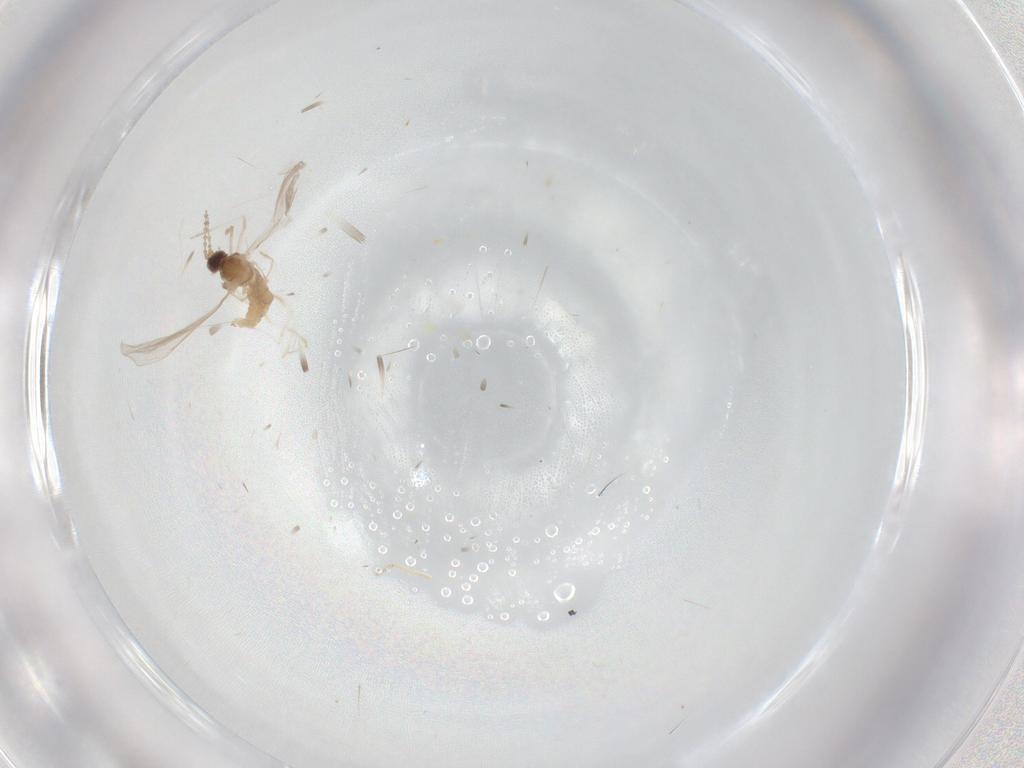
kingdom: Animalia
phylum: Arthropoda
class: Insecta
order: Diptera
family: Cecidomyiidae
